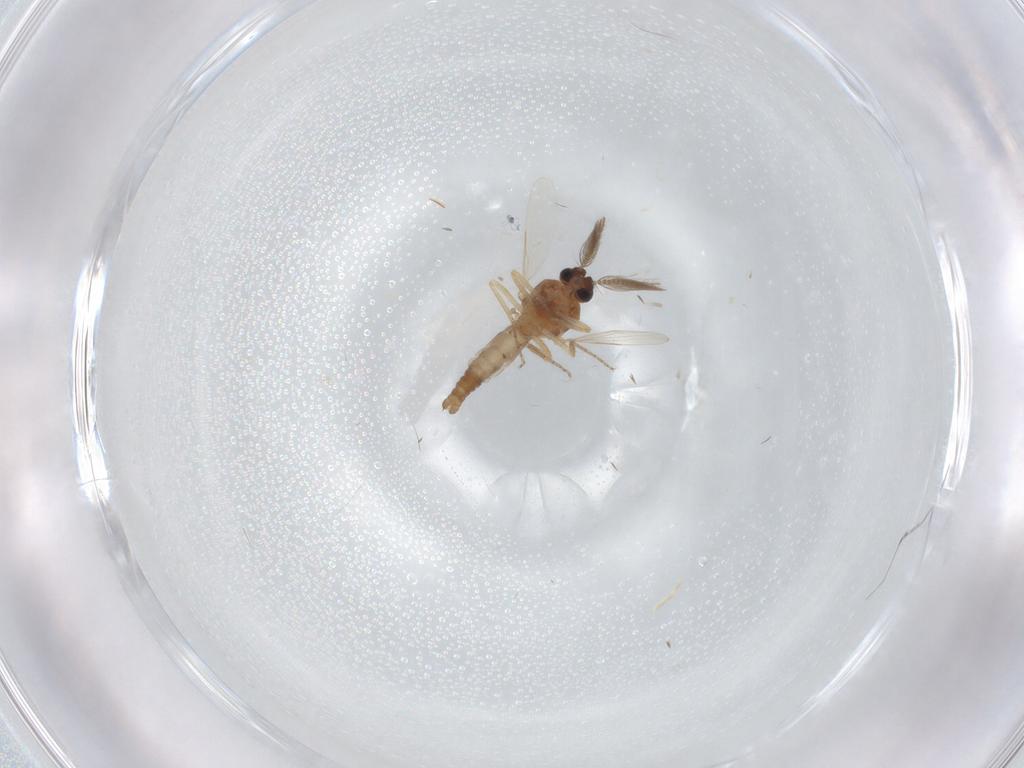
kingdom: Animalia
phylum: Arthropoda
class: Insecta
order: Diptera
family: Ceratopogonidae
